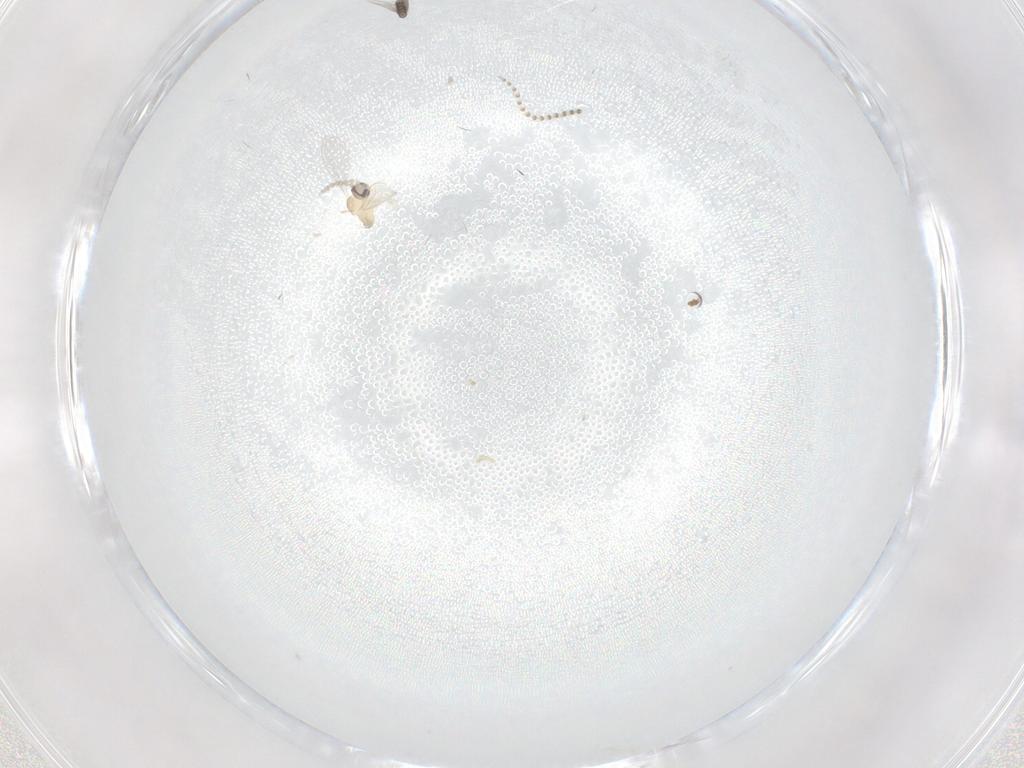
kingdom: Animalia
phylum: Arthropoda
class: Insecta
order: Diptera
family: Cecidomyiidae
